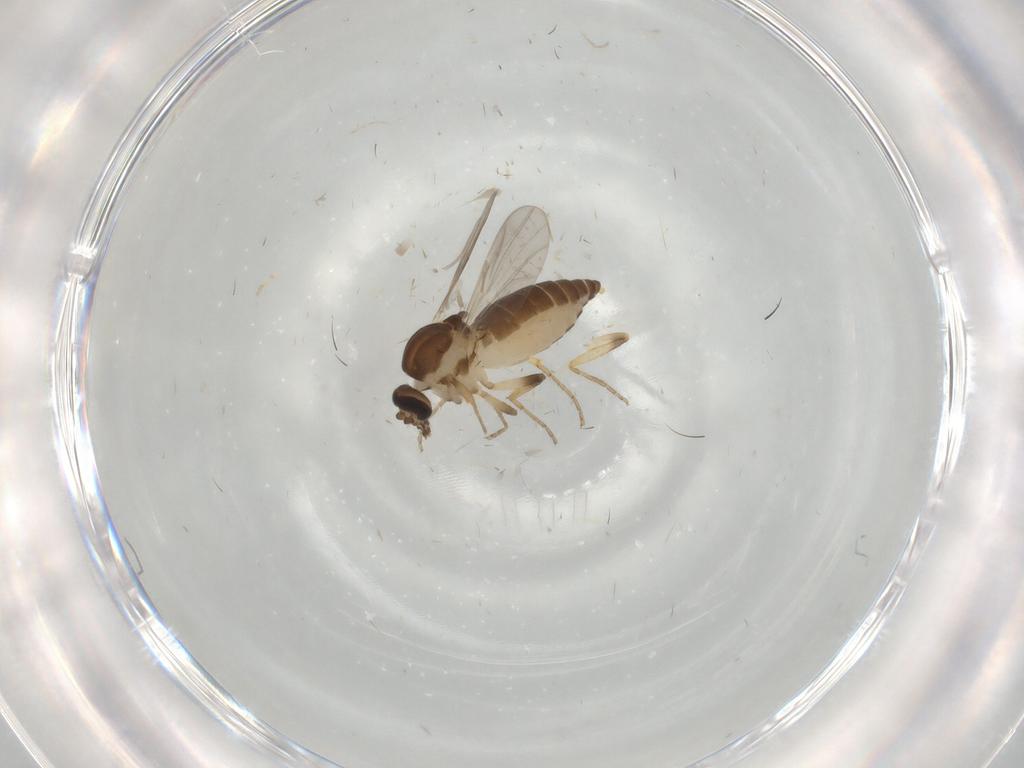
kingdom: Animalia
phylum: Arthropoda
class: Insecta
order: Diptera
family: Ceratopogonidae
